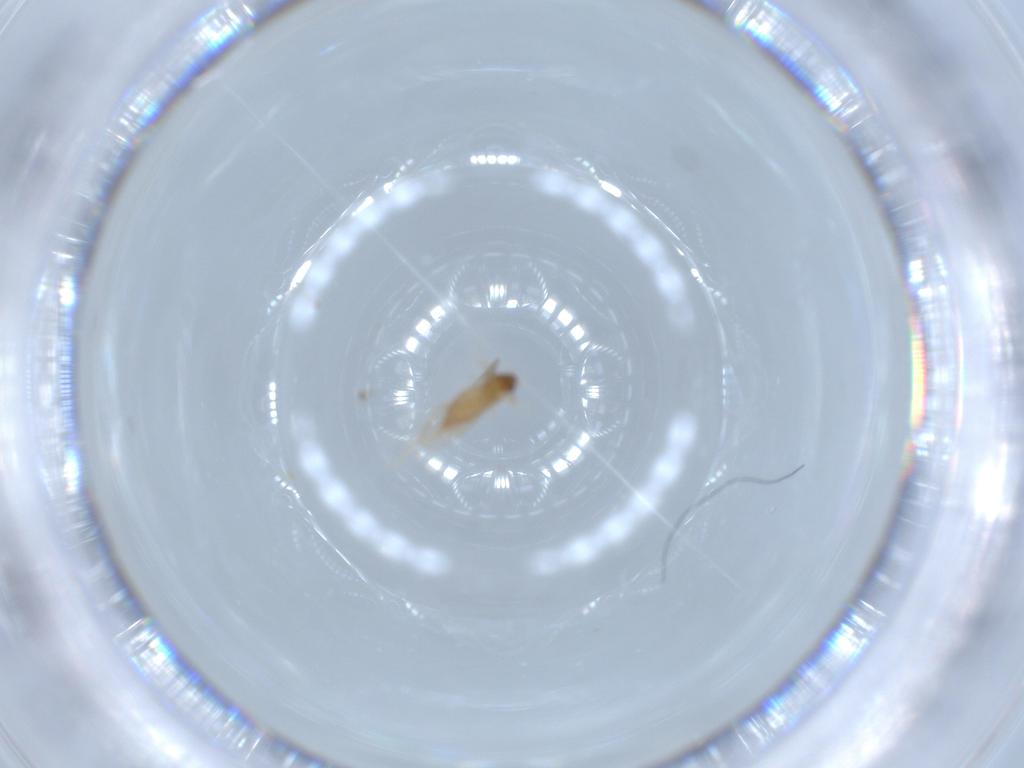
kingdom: Animalia
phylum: Arthropoda
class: Insecta
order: Diptera
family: Cecidomyiidae
